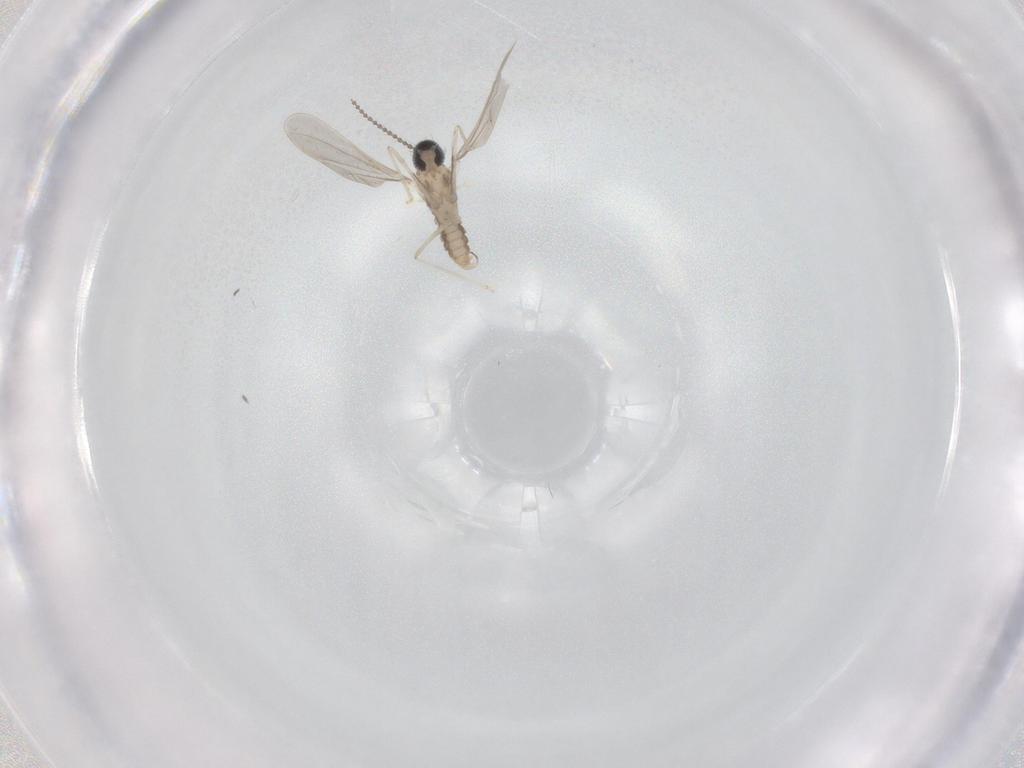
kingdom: Animalia
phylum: Arthropoda
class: Insecta
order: Diptera
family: Cecidomyiidae
